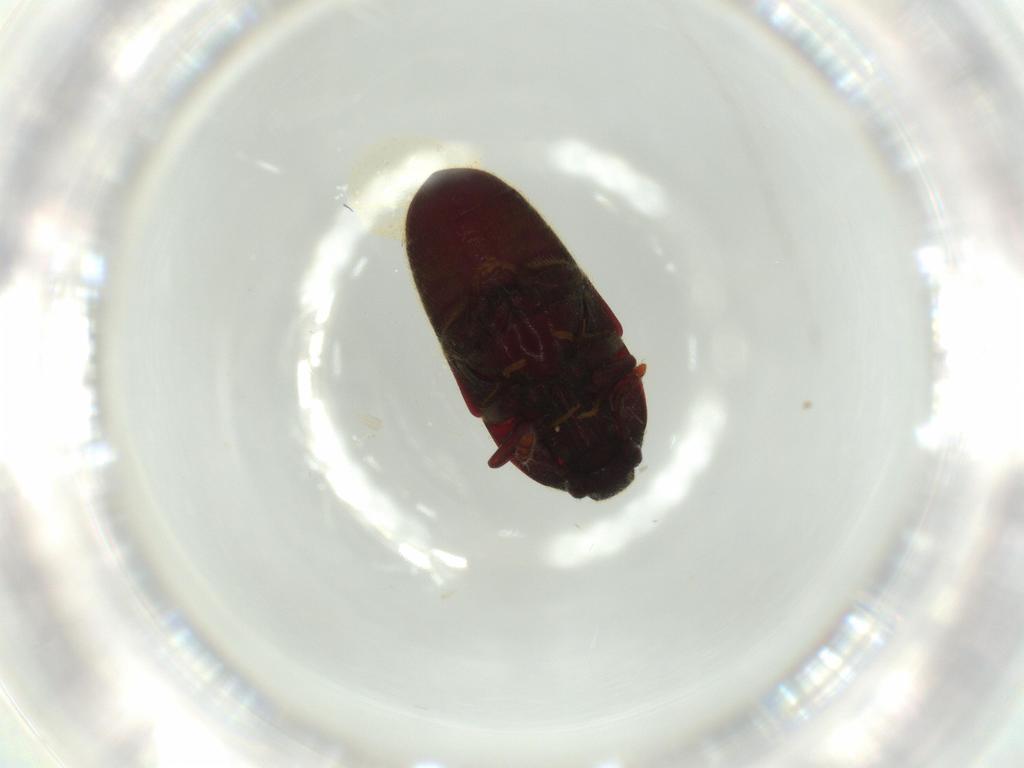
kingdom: Animalia
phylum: Arthropoda
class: Insecta
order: Coleoptera
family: Throscidae
